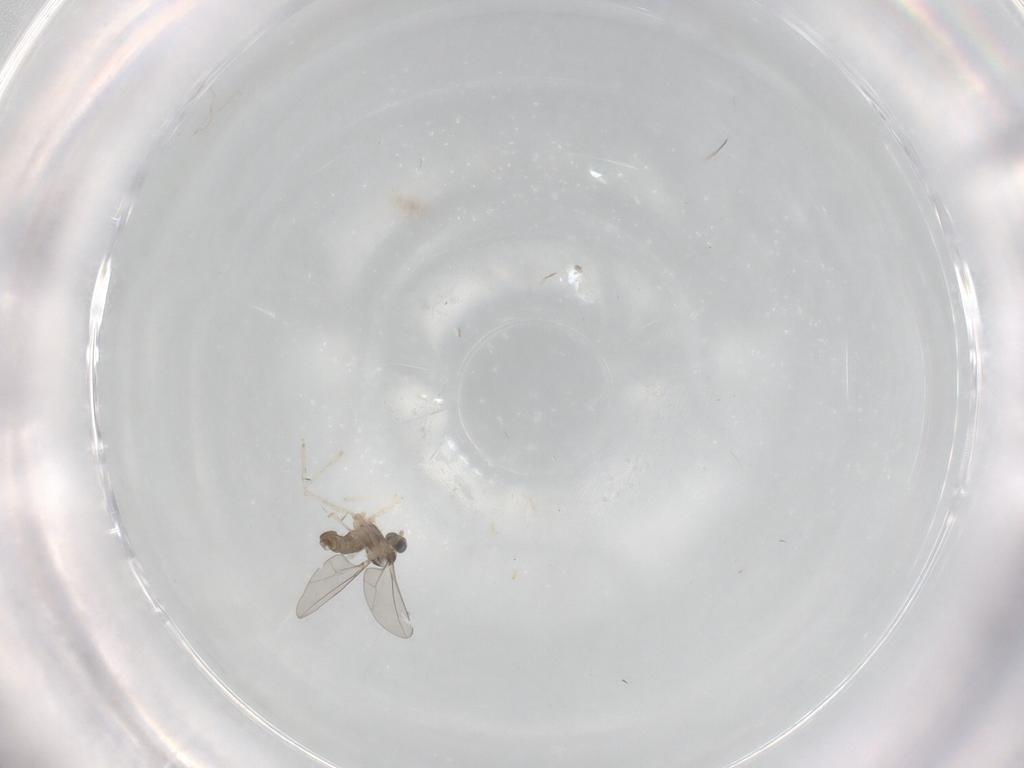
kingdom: Animalia
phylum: Arthropoda
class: Insecta
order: Diptera
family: Cecidomyiidae
